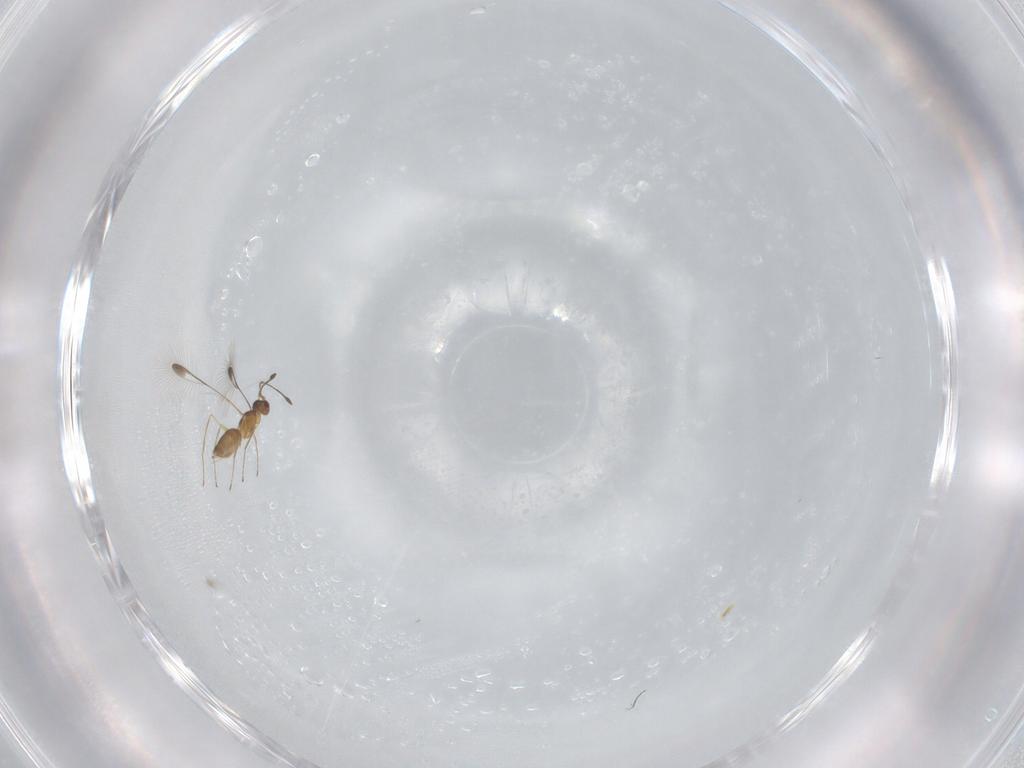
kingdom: Animalia
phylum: Arthropoda
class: Insecta
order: Hymenoptera
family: Mymaridae
